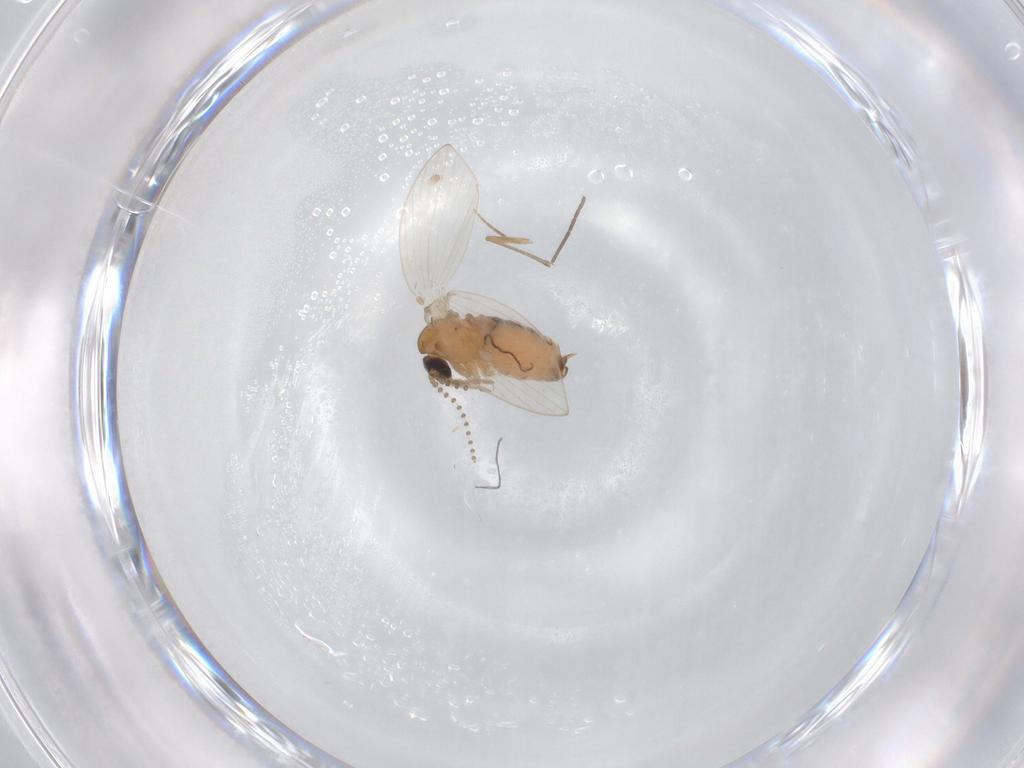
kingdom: Animalia
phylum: Arthropoda
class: Insecta
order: Diptera
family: Psychodidae
